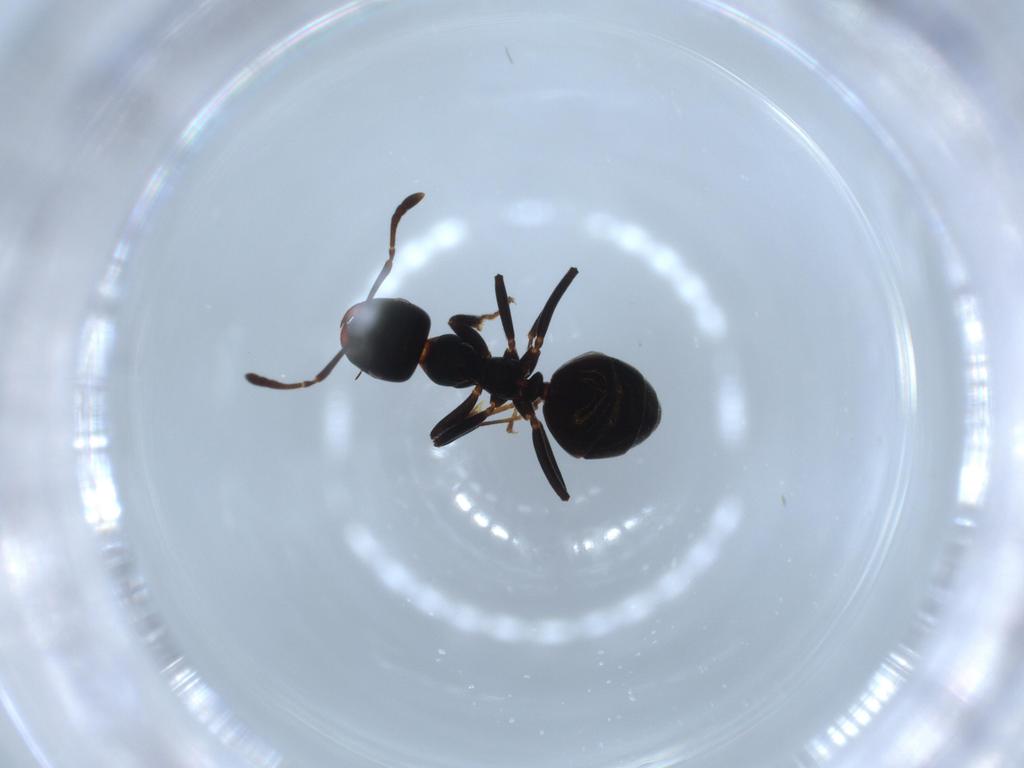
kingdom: Animalia
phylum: Arthropoda
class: Insecta
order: Hymenoptera
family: Formicidae
